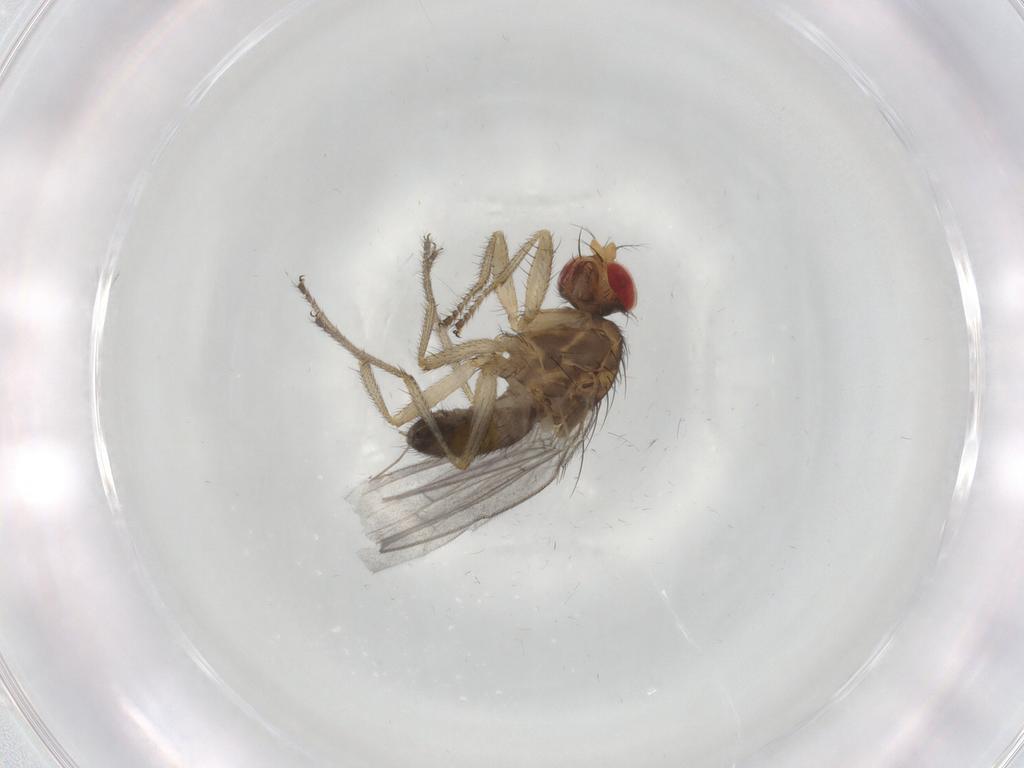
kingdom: Animalia
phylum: Arthropoda
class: Insecta
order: Diptera
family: Drosophilidae
